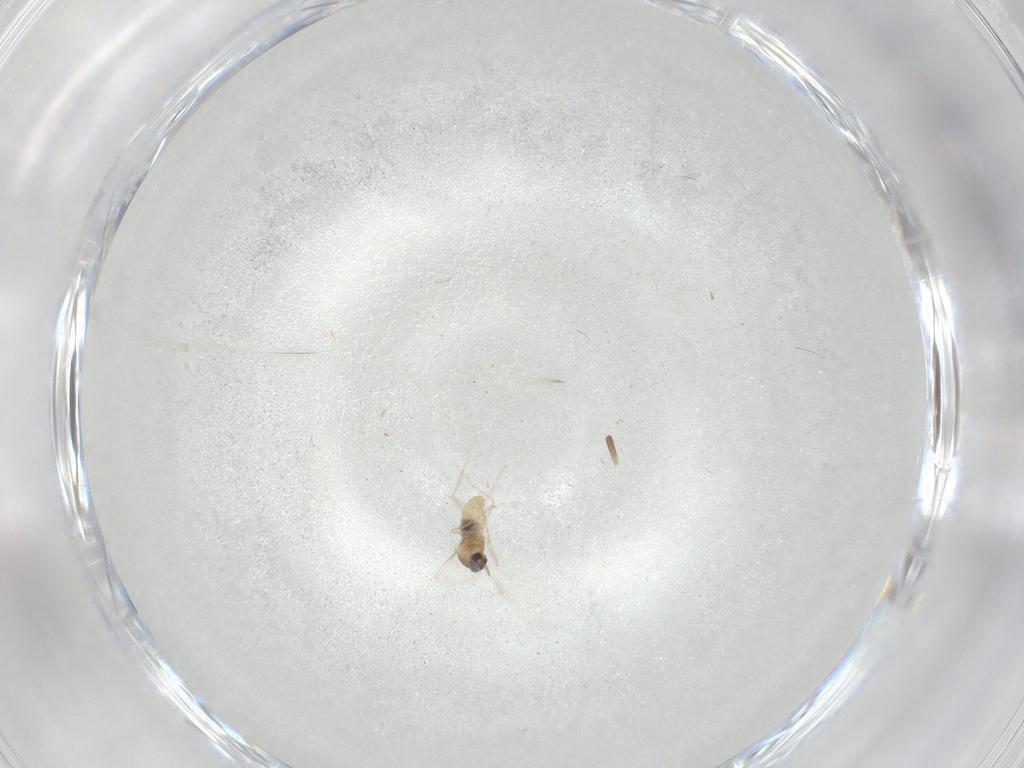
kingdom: Animalia
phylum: Arthropoda
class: Insecta
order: Diptera
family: Cecidomyiidae
